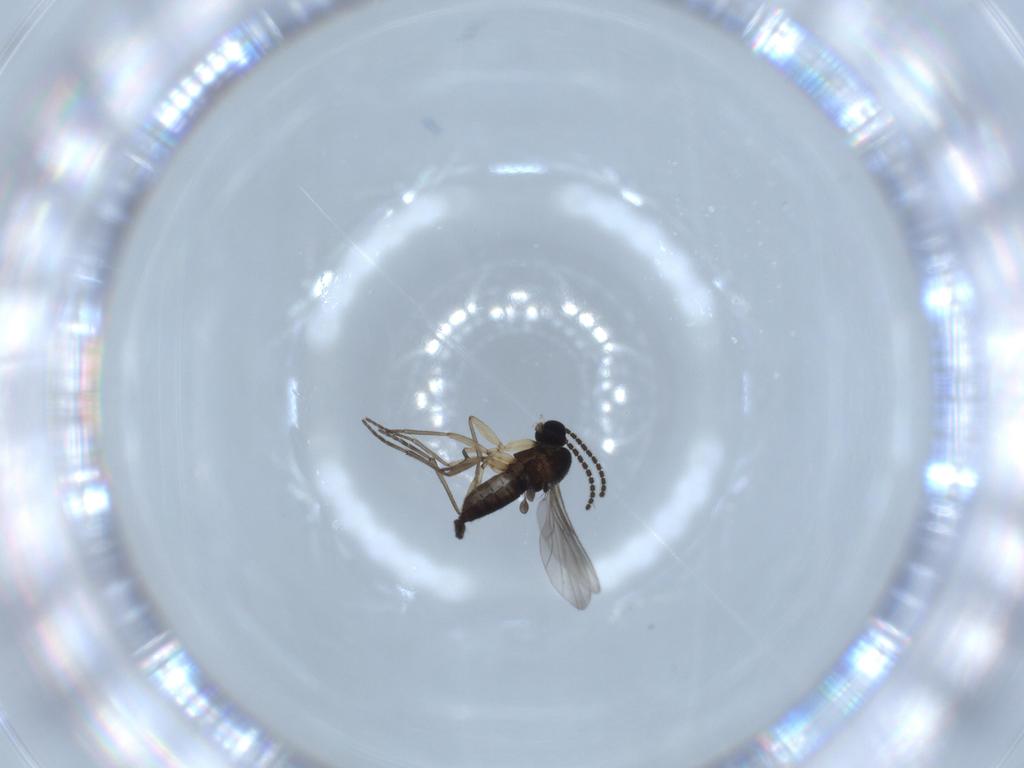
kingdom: Animalia
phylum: Arthropoda
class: Insecta
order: Diptera
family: Sciaridae
